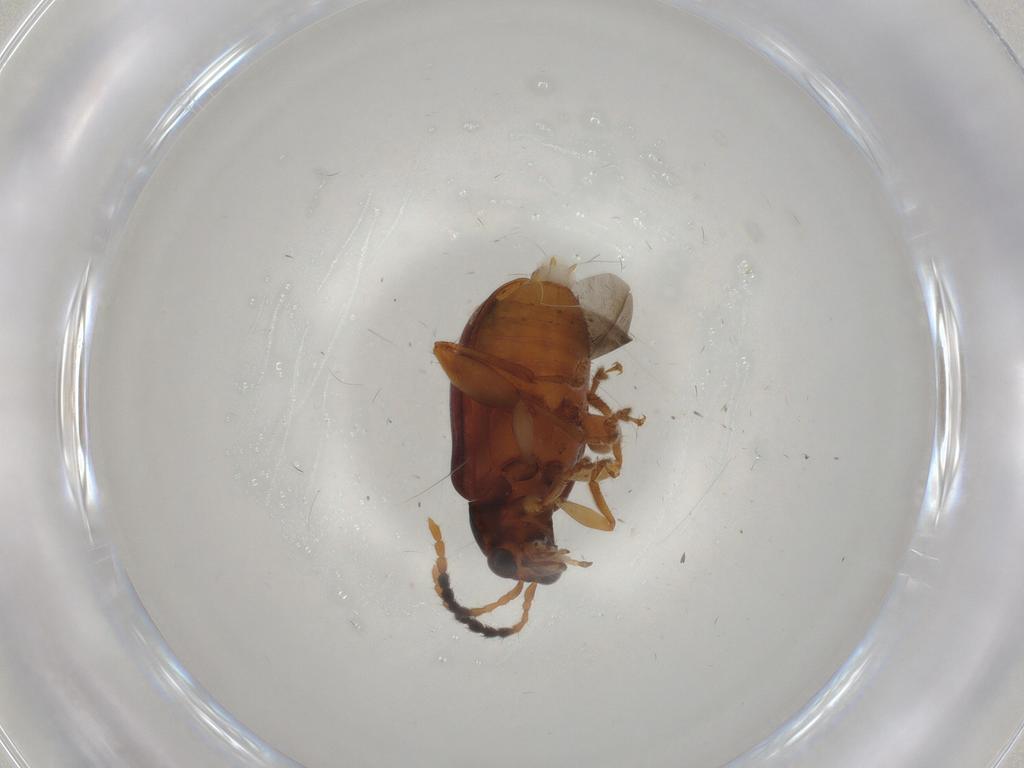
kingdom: Animalia
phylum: Arthropoda
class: Insecta
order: Coleoptera
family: Chrysomelidae
